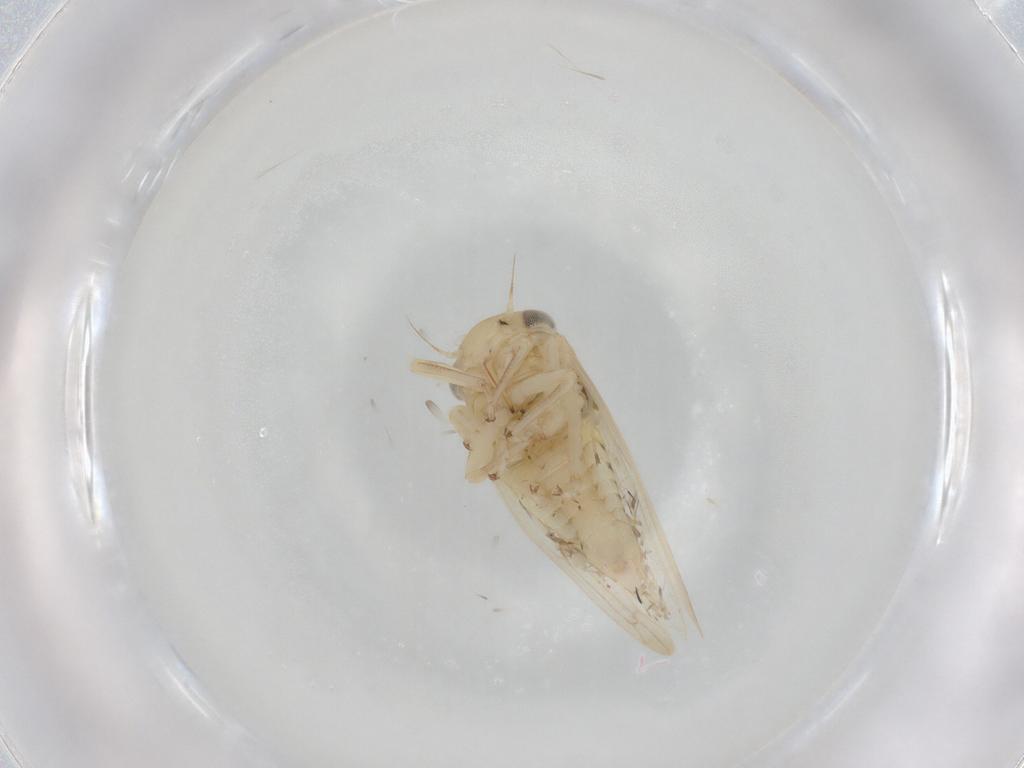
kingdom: Animalia
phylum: Arthropoda
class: Insecta
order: Hemiptera
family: Cicadellidae
